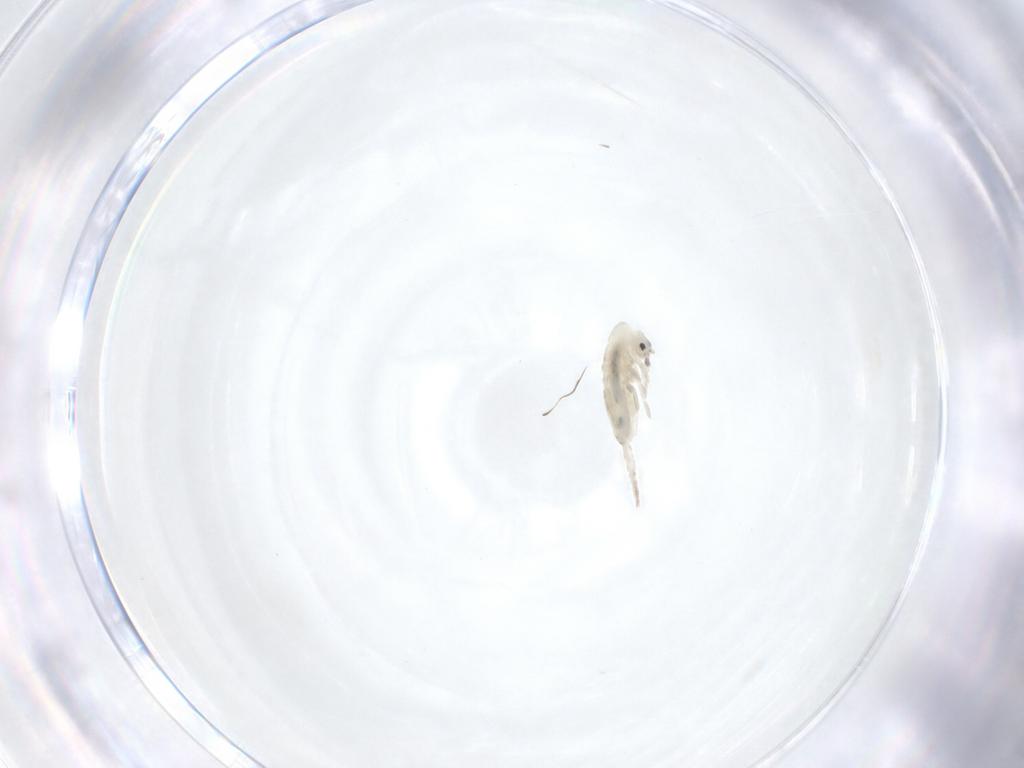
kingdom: Animalia
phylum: Arthropoda
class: Collembola
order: Entomobryomorpha
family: Entomobryidae
